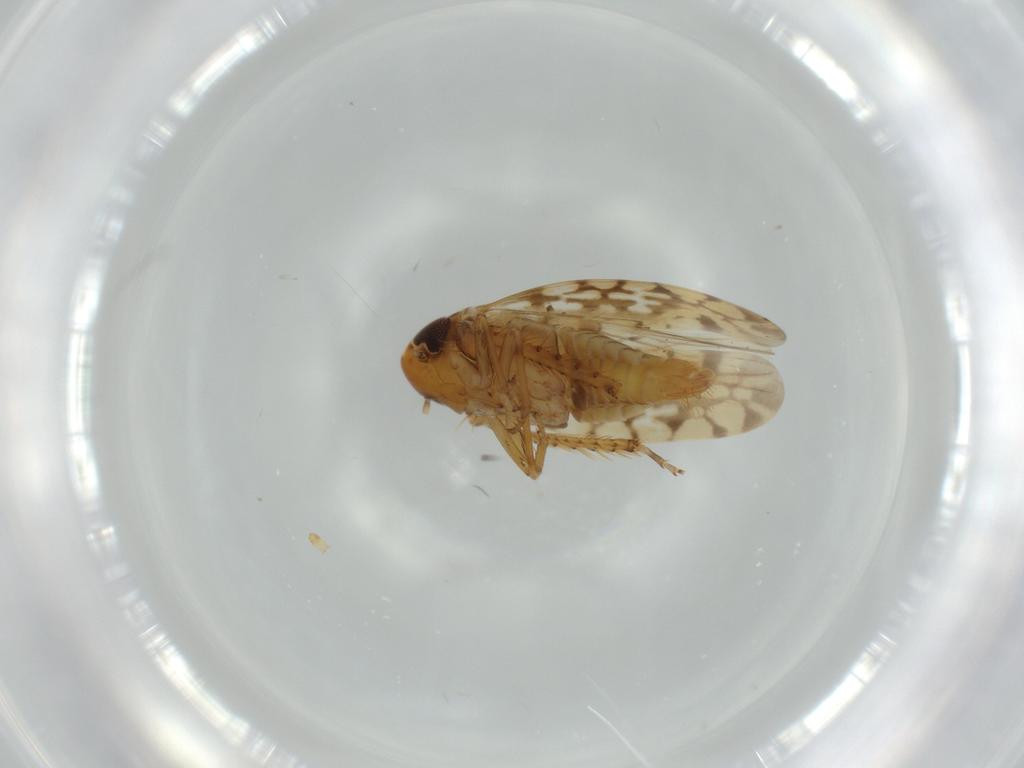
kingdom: Animalia
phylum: Arthropoda
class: Insecta
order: Hemiptera
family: Cicadellidae
